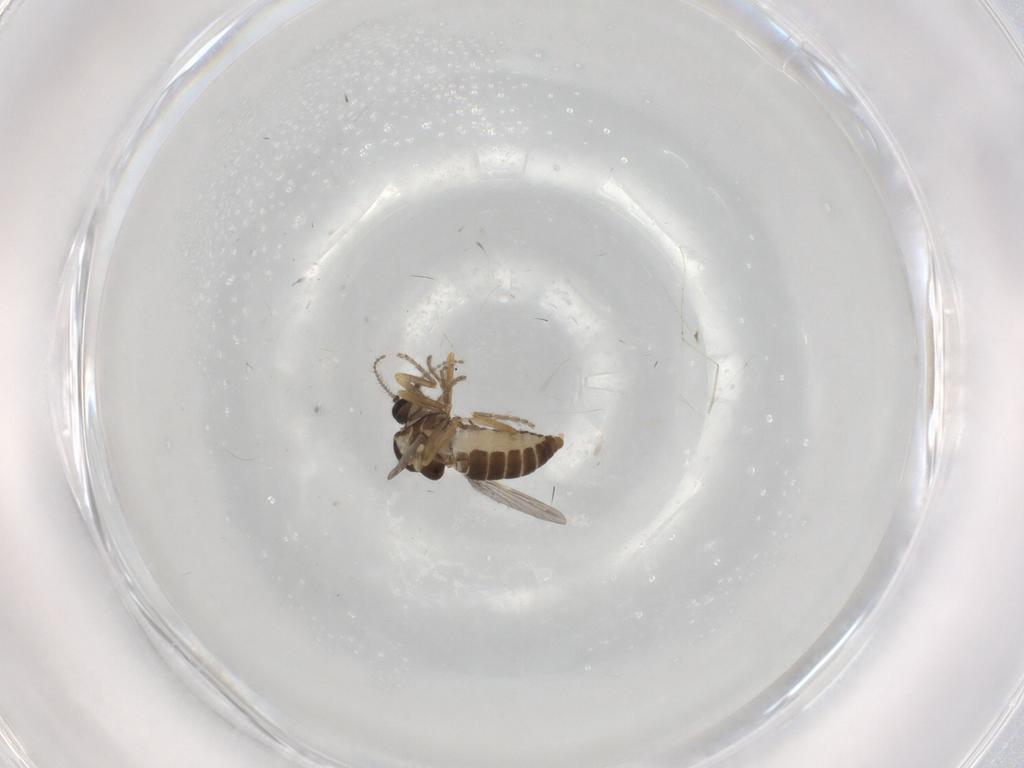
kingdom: Animalia
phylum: Arthropoda
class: Insecta
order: Diptera
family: Ceratopogonidae
